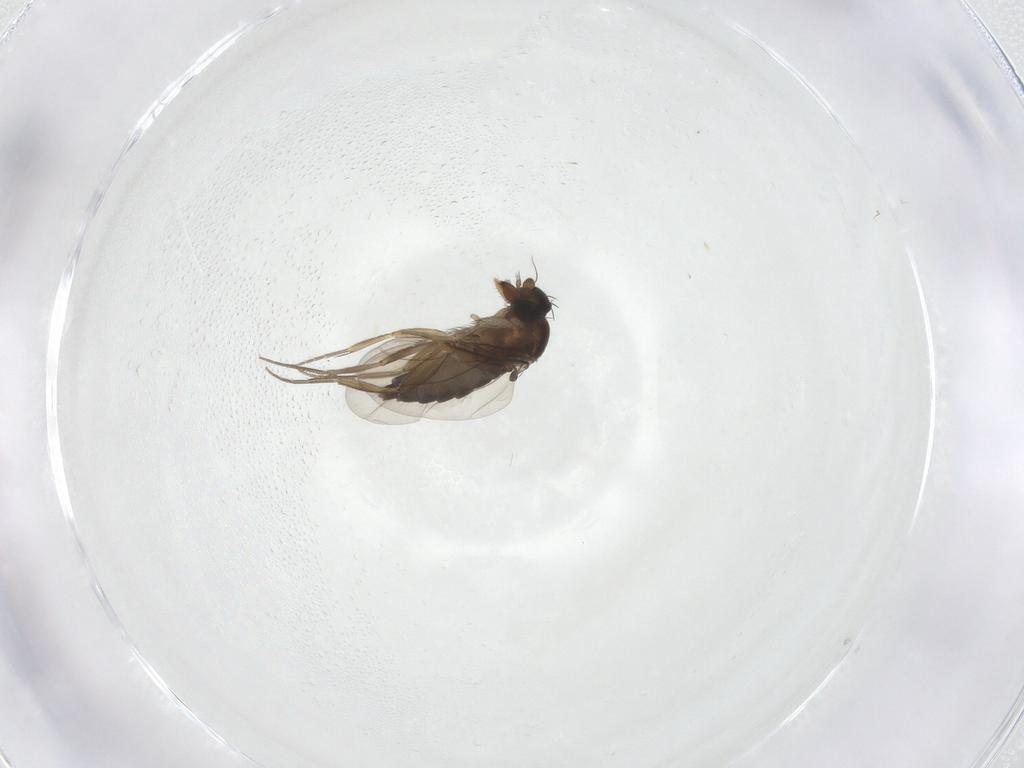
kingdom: Animalia
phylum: Arthropoda
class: Insecta
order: Diptera
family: Phoridae
